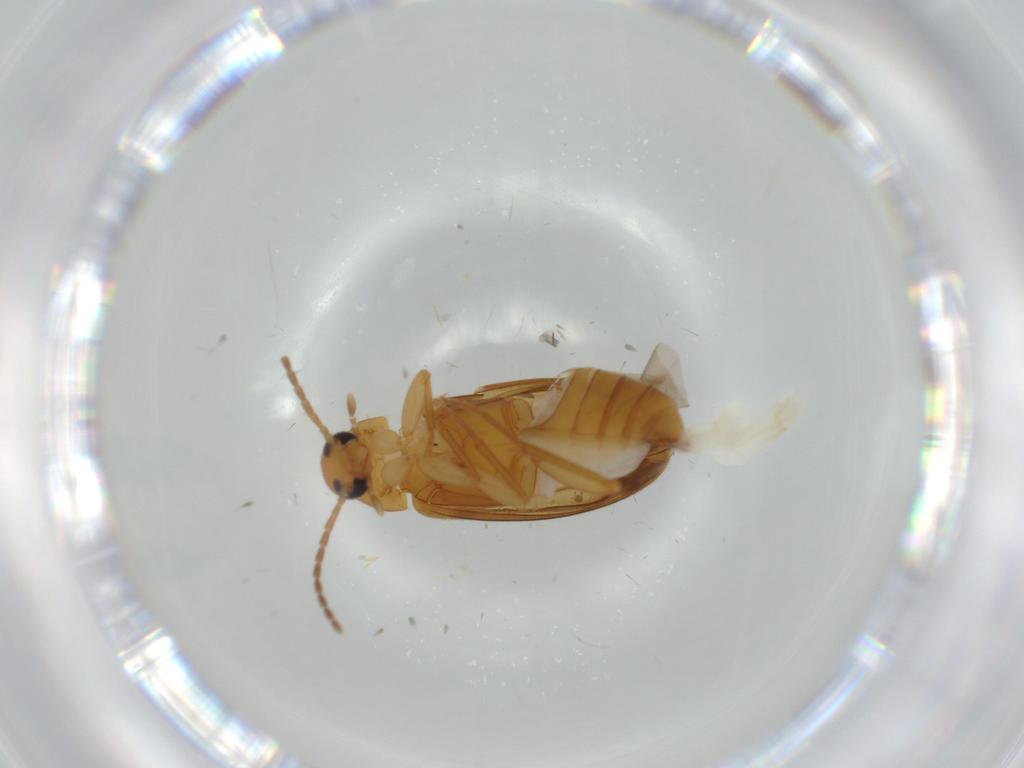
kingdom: Animalia
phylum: Arthropoda
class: Insecta
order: Coleoptera
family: Scraptiidae
